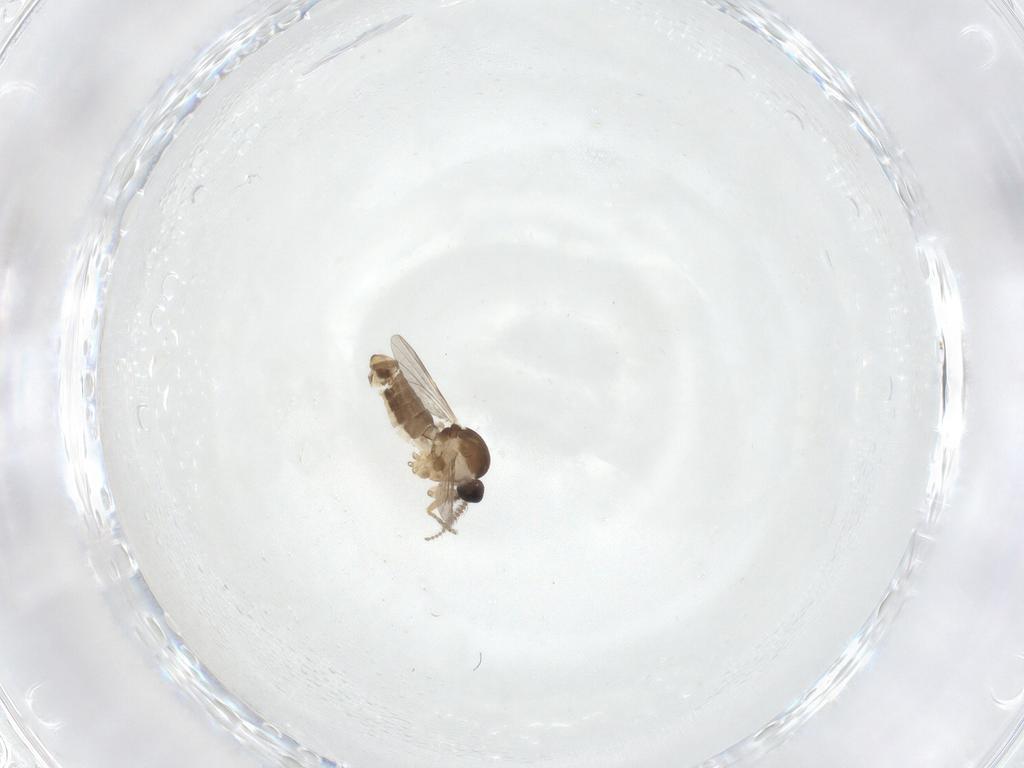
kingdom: Animalia
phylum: Arthropoda
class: Insecta
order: Diptera
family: Ceratopogonidae
